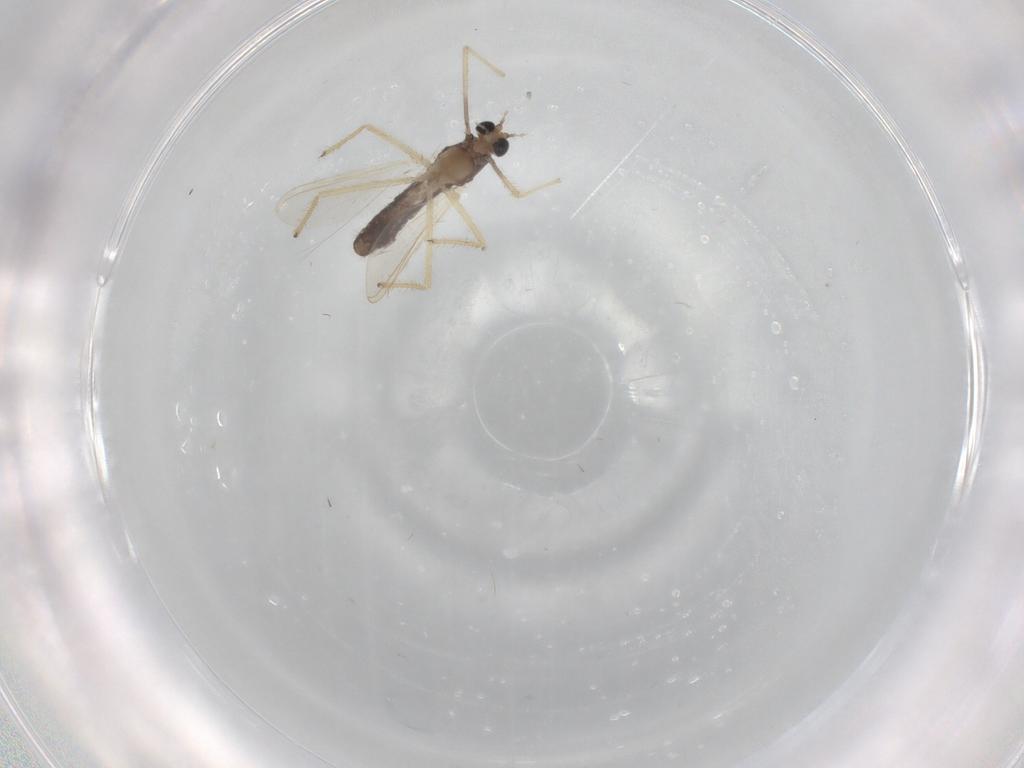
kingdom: Animalia
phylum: Arthropoda
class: Insecta
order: Diptera
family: Chironomidae
